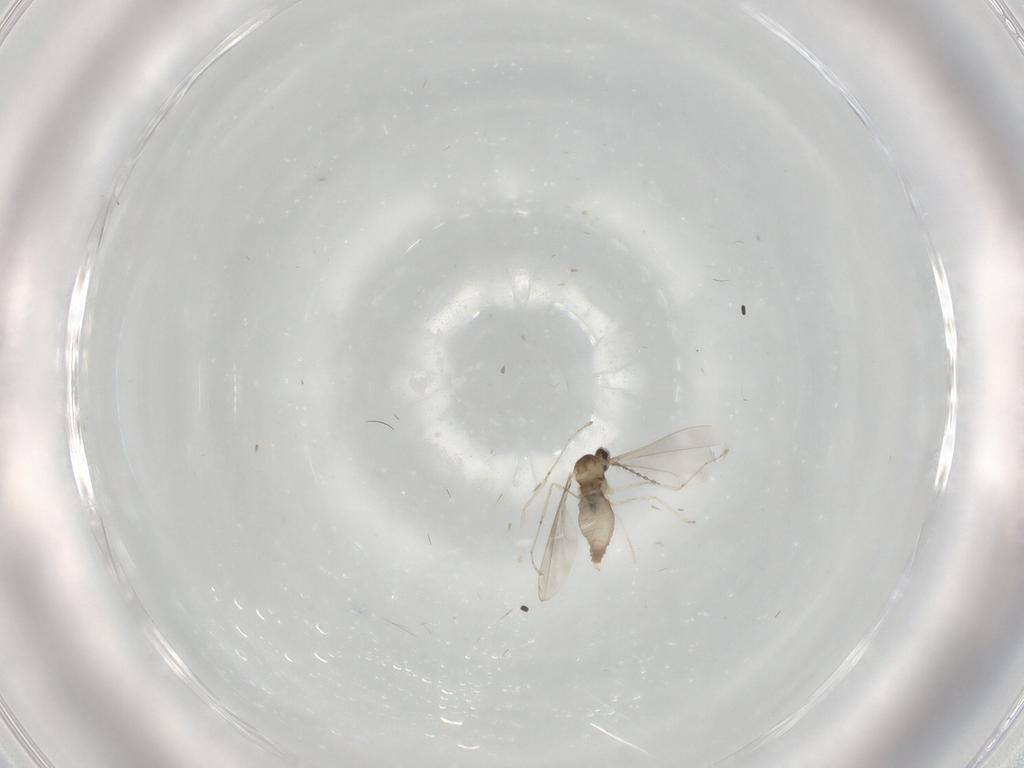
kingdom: Animalia
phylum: Arthropoda
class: Insecta
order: Diptera
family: Cecidomyiidae
